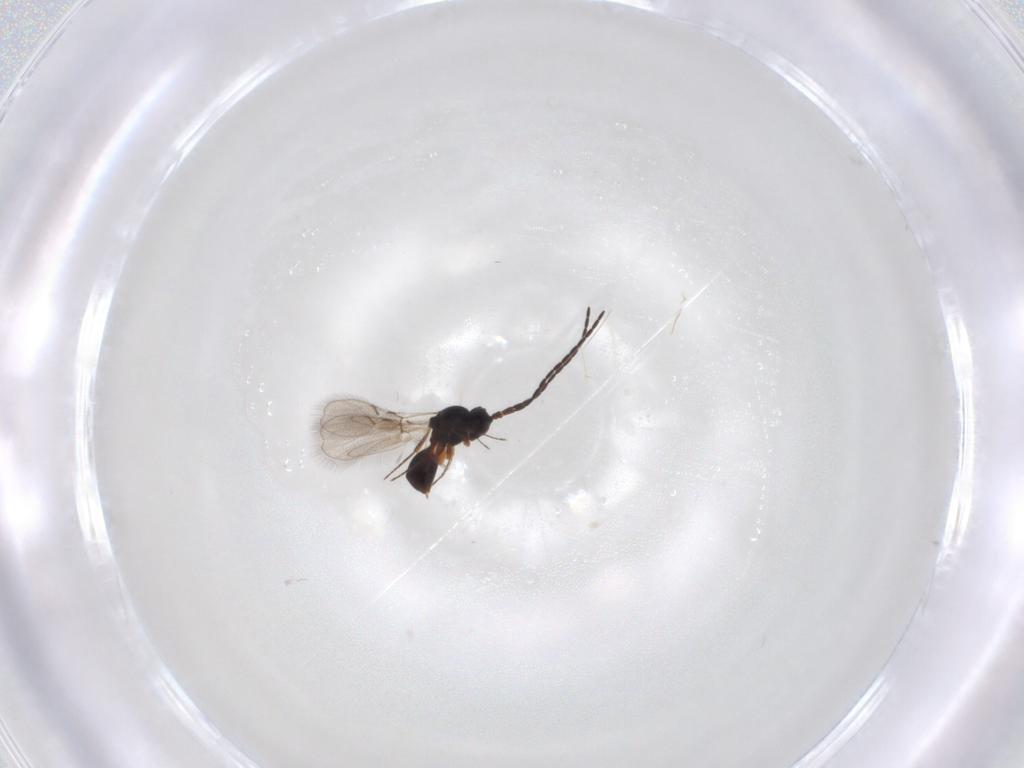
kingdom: Animalia
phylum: Arthropoda
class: Insecta
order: Hymenoptera
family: Figitidae
